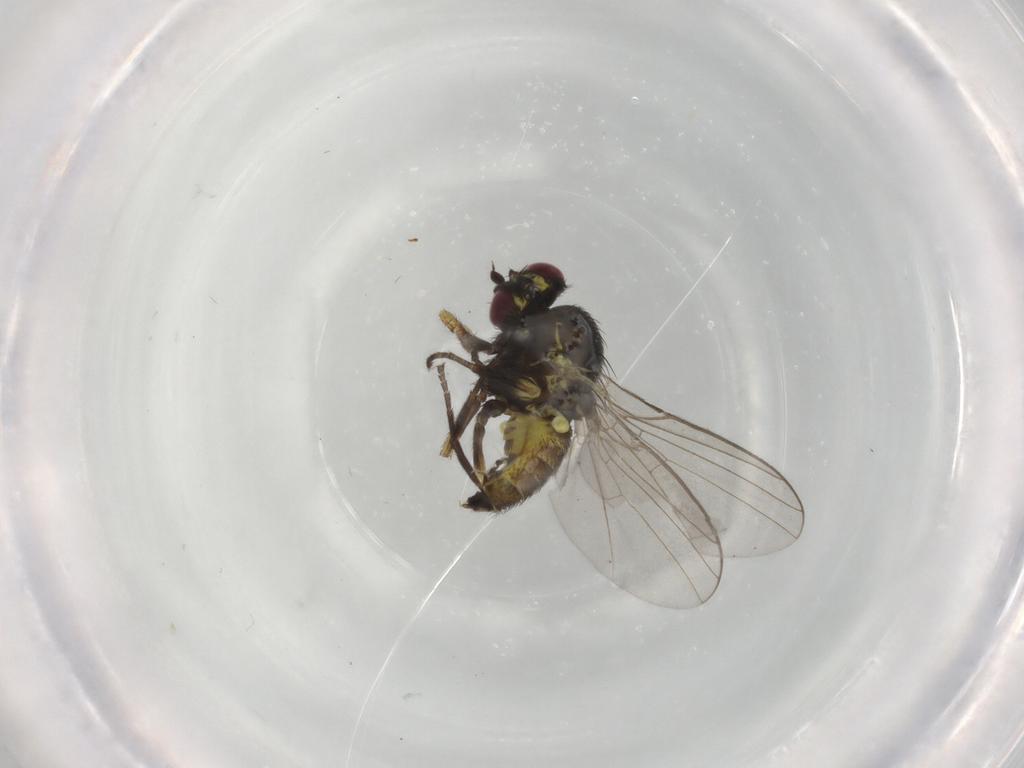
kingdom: Animalia
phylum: Arthropoda
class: Insecta
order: Diptera
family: Agromyzidae
